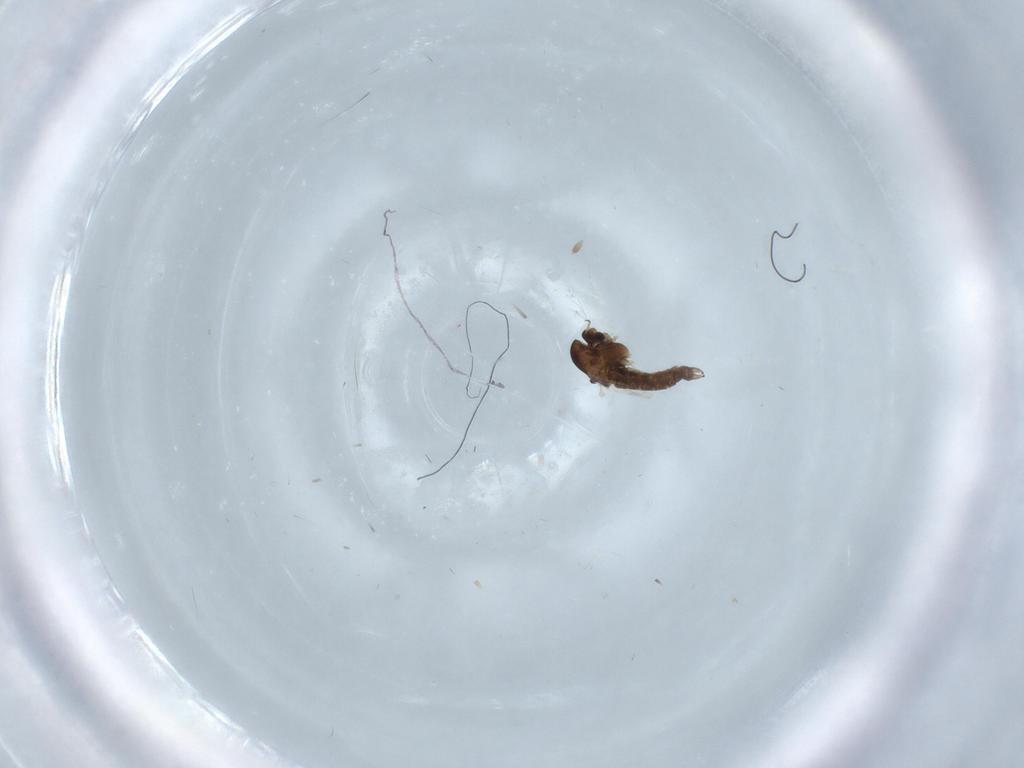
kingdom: Animalia
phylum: Arthropoda
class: Insecta
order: Diptera
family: Chironomidae
